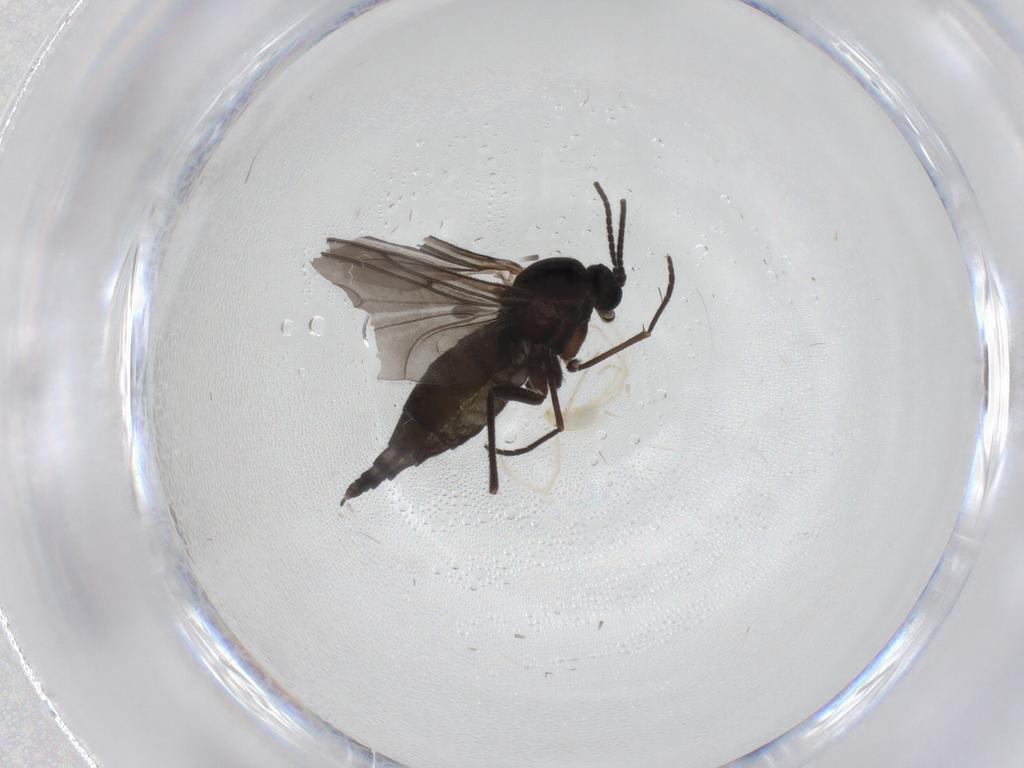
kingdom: Animalia
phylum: Arthropoda
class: Insecta
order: Diptera
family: Sciaridae
